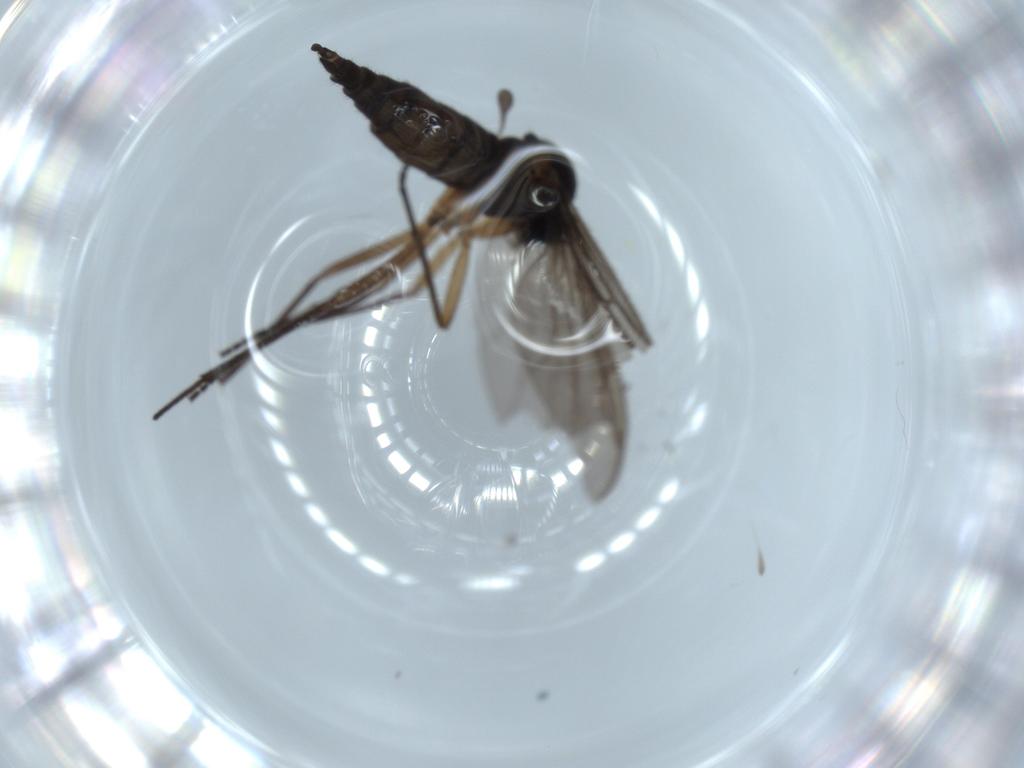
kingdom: Animalia
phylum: Arthropoda
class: Insecta
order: Diptera
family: Sciaridae
